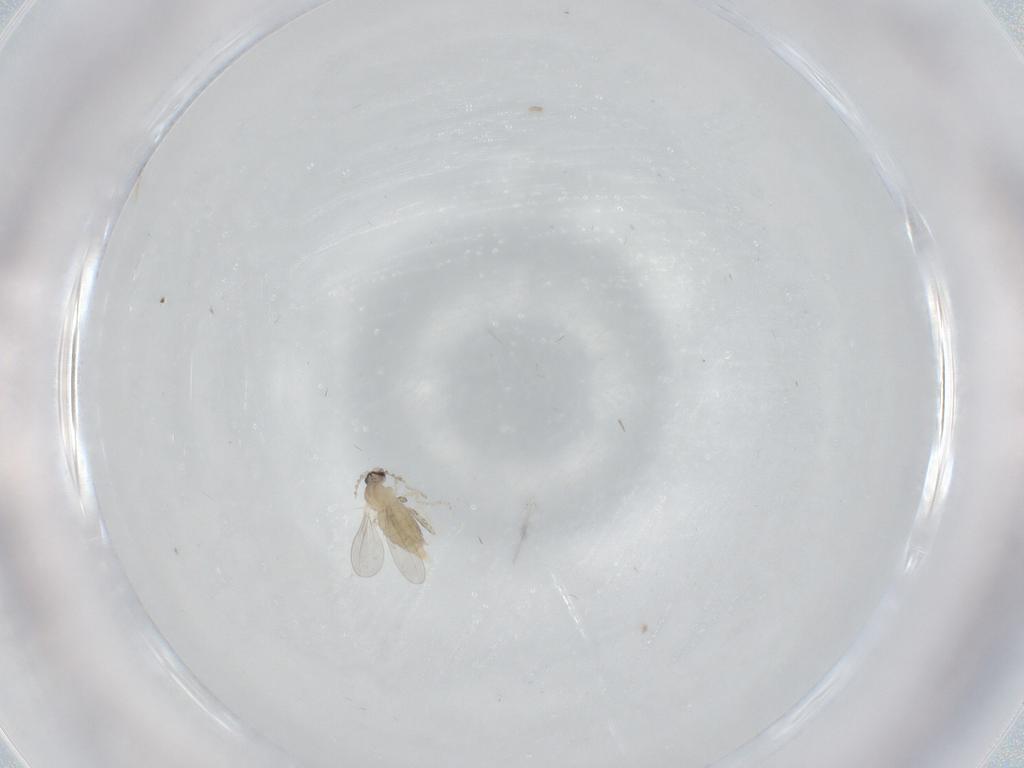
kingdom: Animalia
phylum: Arthropoda
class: Insecta
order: Diptera
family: Cecidomyiidae
